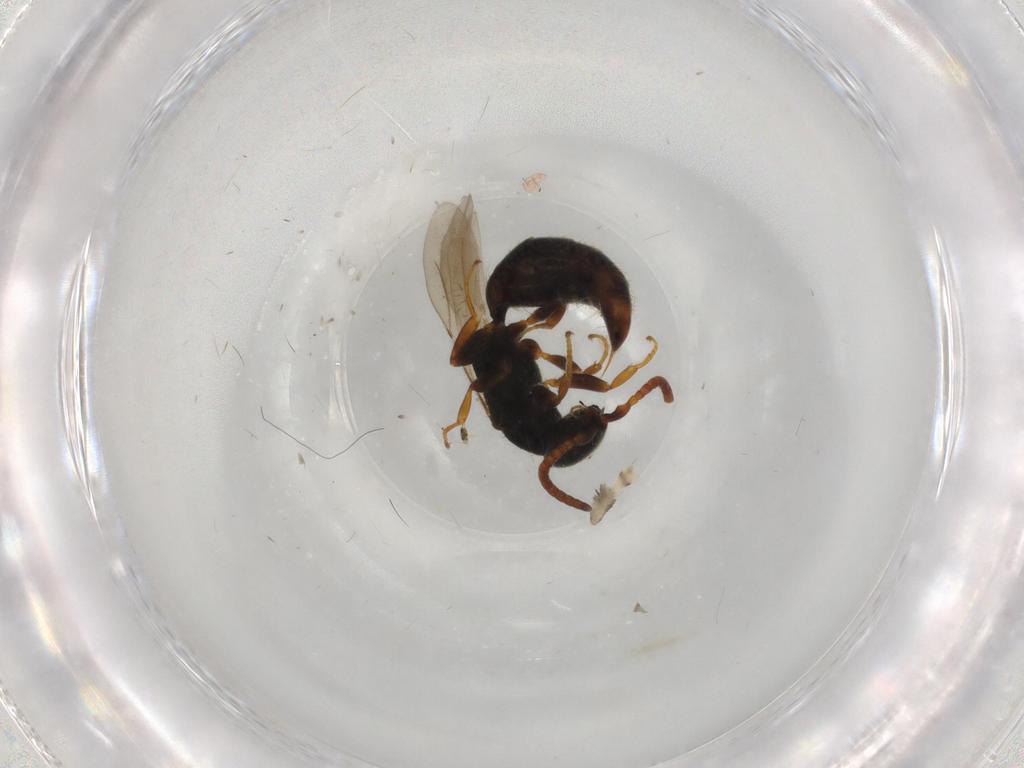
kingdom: Animalia
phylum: Arthropoda
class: Insecta
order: Hymenoptera
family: Bethylidae
